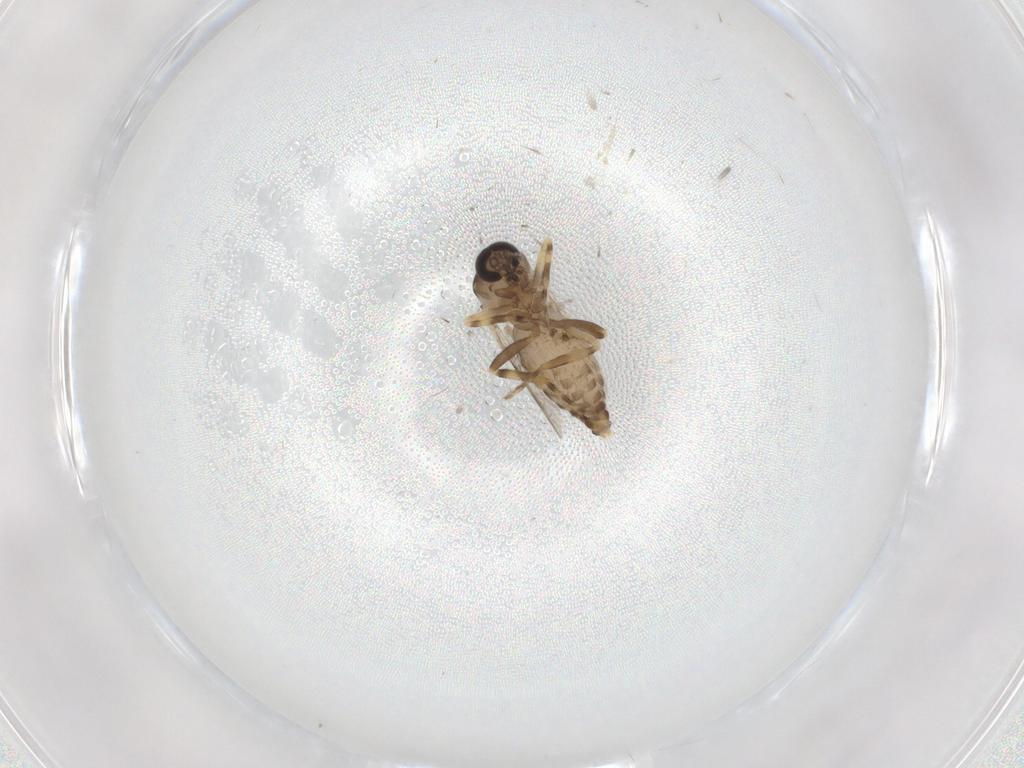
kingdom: Animalia
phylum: Arthropoda
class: Insecta
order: Diptera
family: Ceratopogonidae
